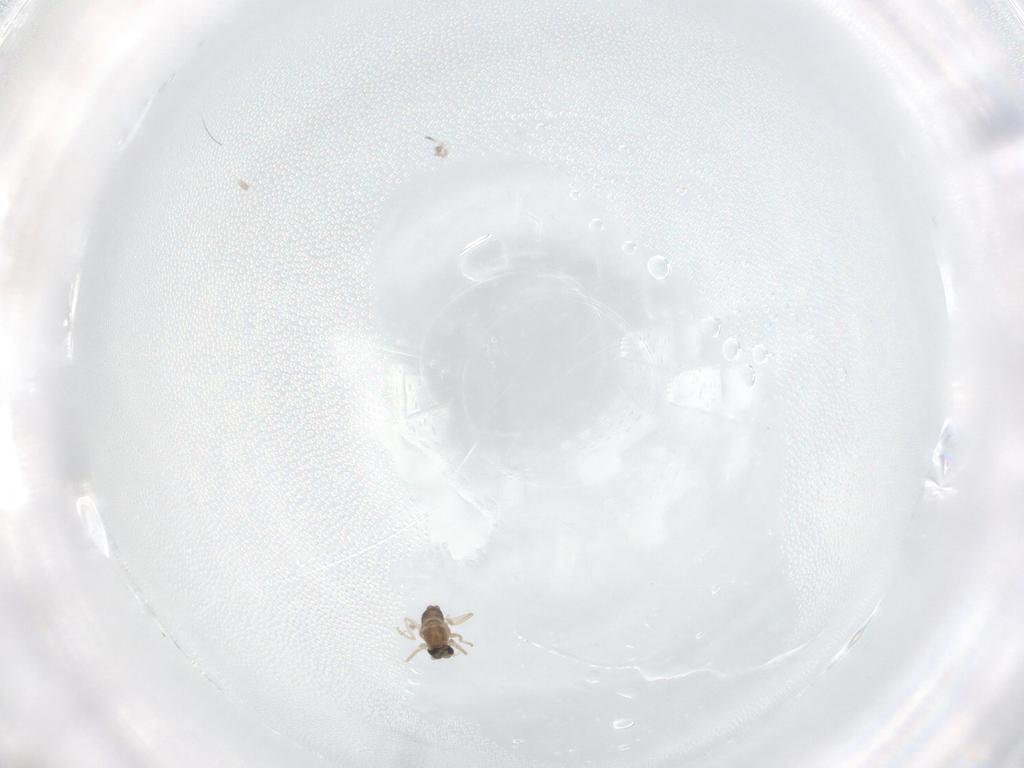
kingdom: Animalia
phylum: Arthropoda
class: Insecta
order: Diptera
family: Cecidomyiidae
